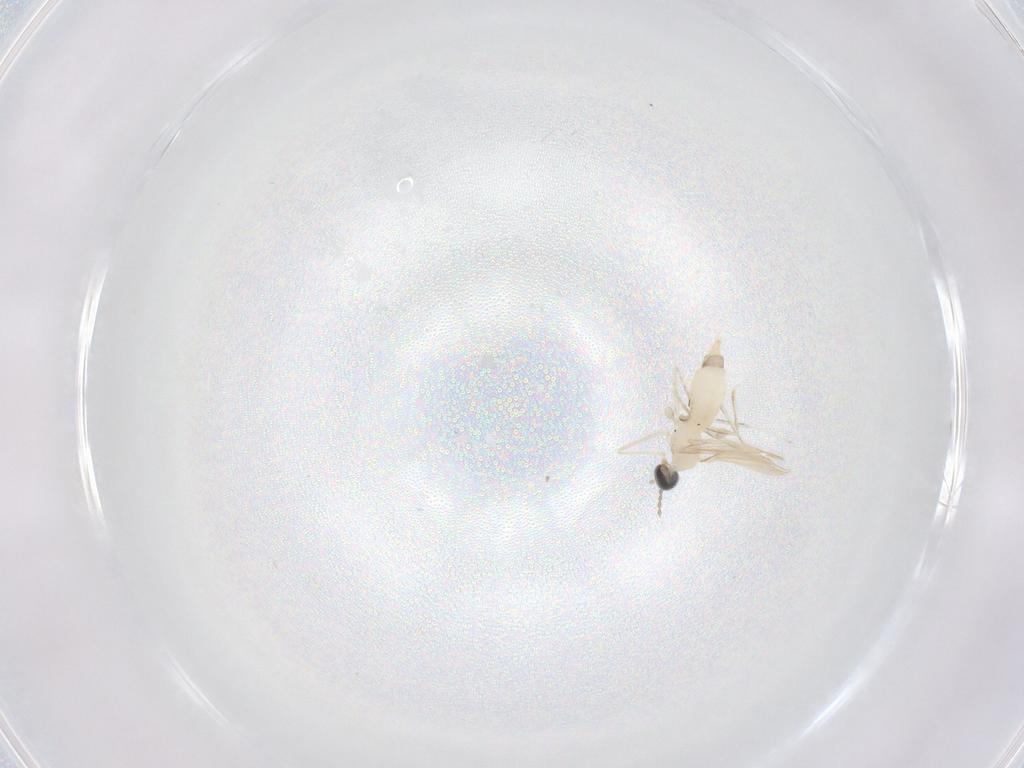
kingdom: Animalia
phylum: Arthropoda
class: Insecta
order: Diptera
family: Cecidomyiidae
